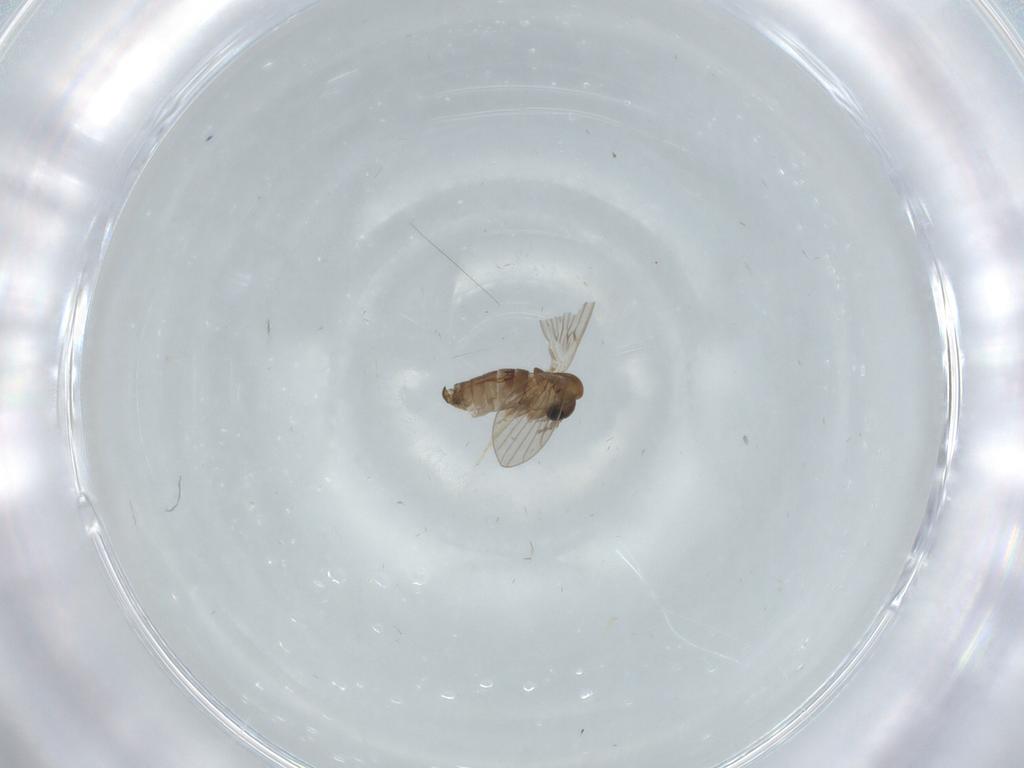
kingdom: Animalia
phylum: Arthropoda
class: Insecta
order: Diptera
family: Chironomidae
